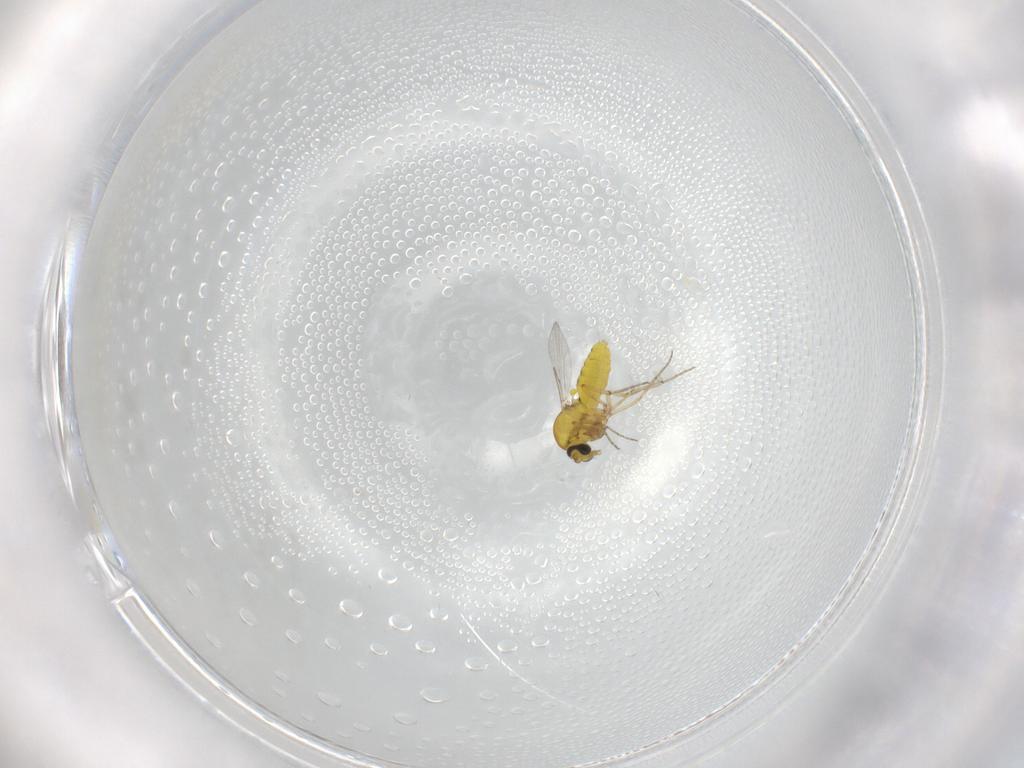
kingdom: Animalia
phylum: Arthropoda
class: Insecta
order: Diptera
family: Ceratopogonidae
